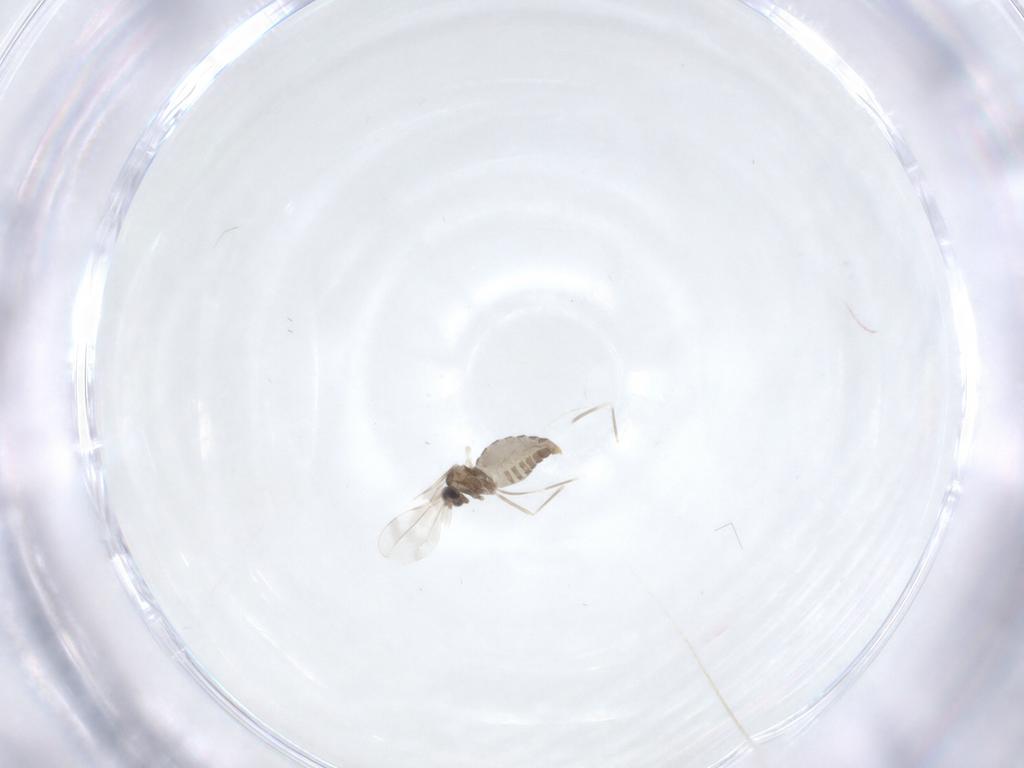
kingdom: Animalia
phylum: Arthropoda
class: Insecta
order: Diptera
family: Cecidomyiidae
